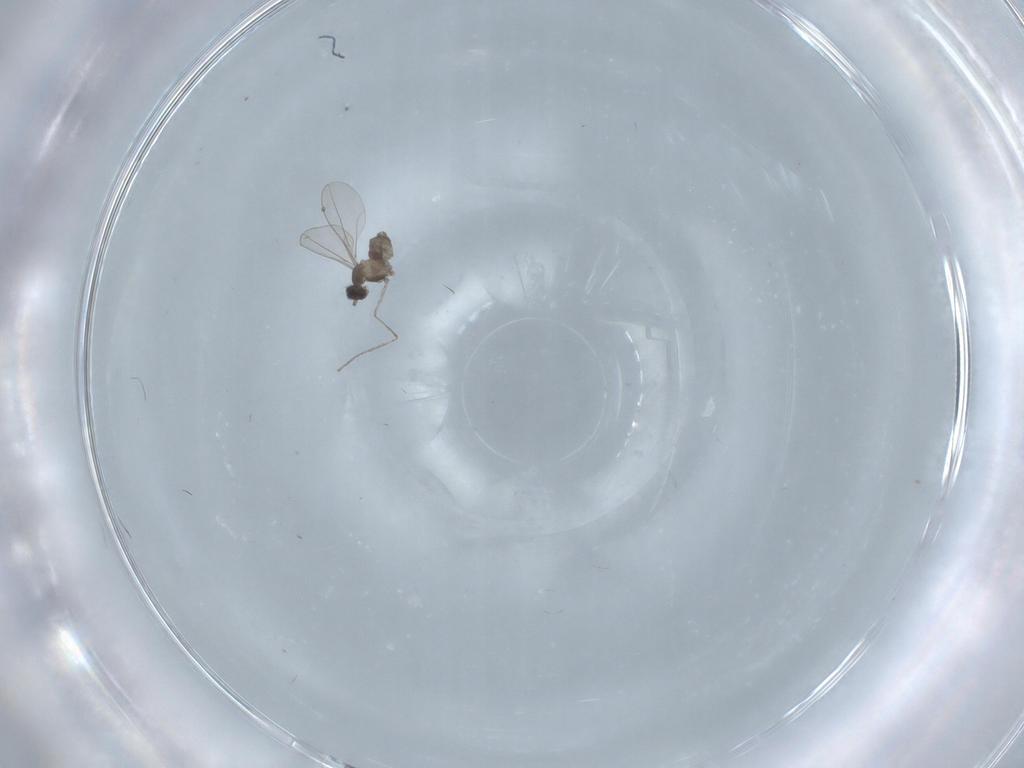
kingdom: Animalia
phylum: Arthropoda
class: Insecta
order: Diptera
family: Cecidomyiidae
